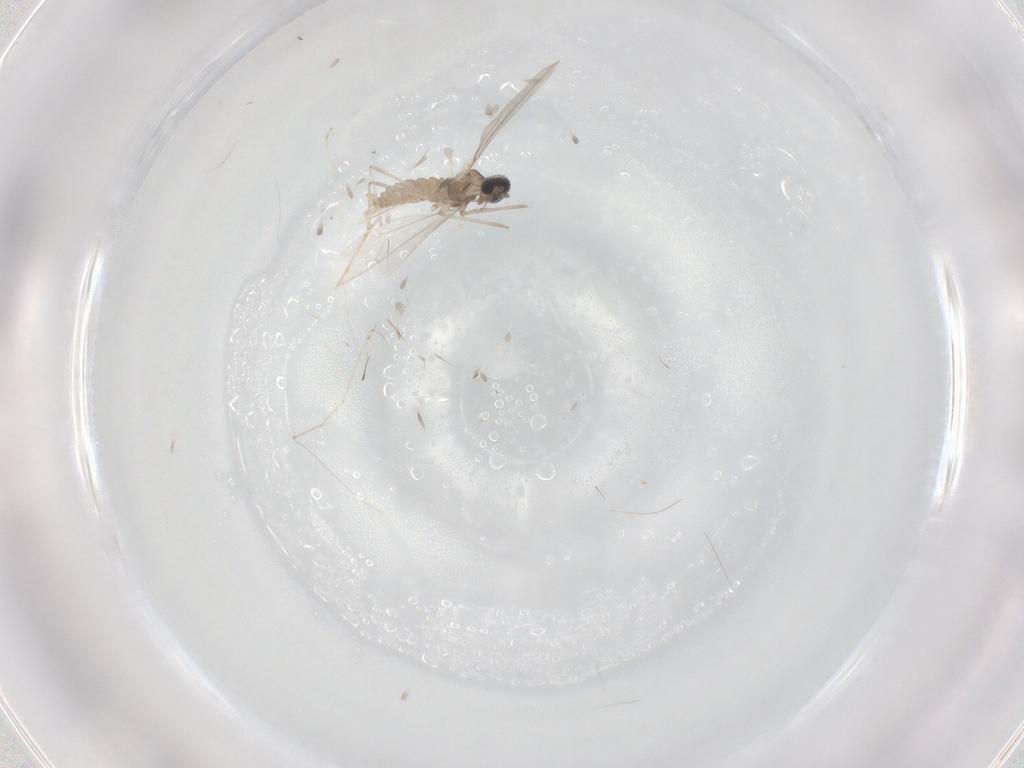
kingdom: Animalia
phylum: Arthropoda
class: Insecta
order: Diptera
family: Cecidomyiidae
